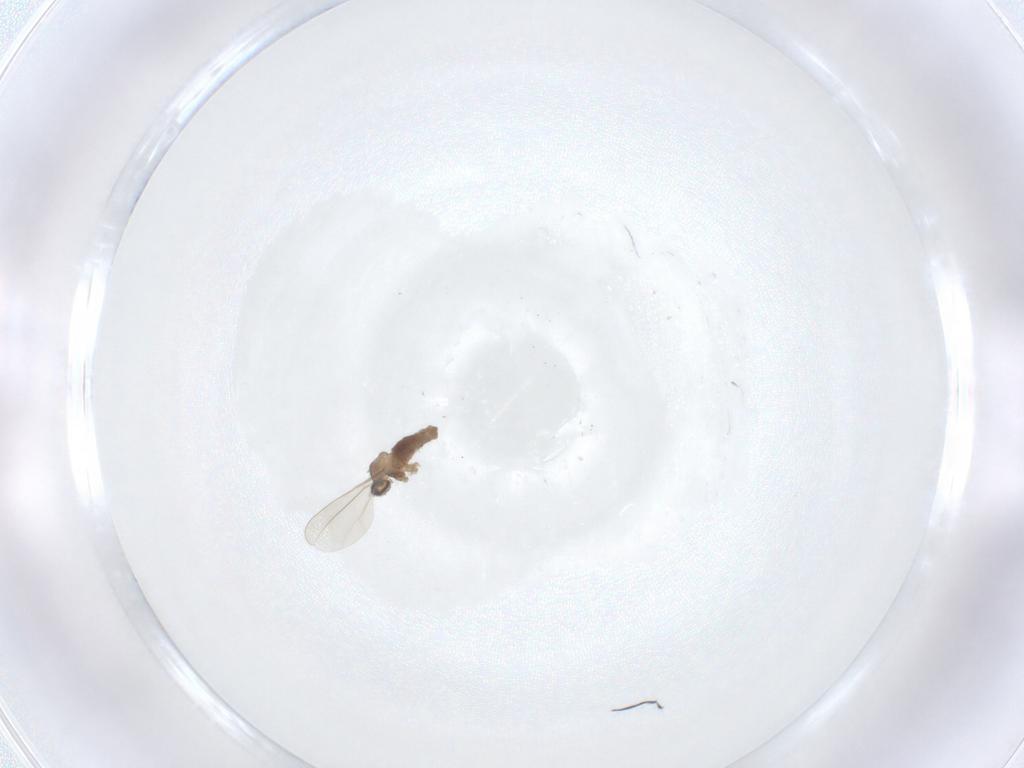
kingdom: Animalia
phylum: Arthropoda
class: Insecta
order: Diptera
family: Cecidomyiidae
